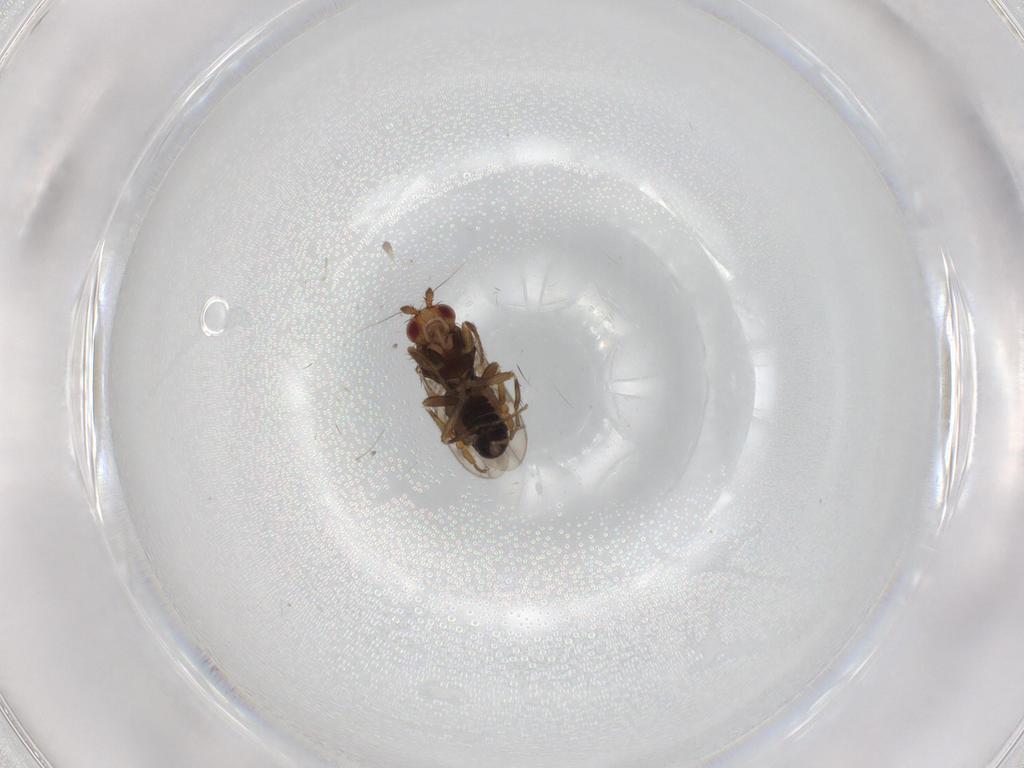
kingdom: Animalia
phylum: Arthropoda
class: Insecta
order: Diptera
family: Sphaeroceridae
